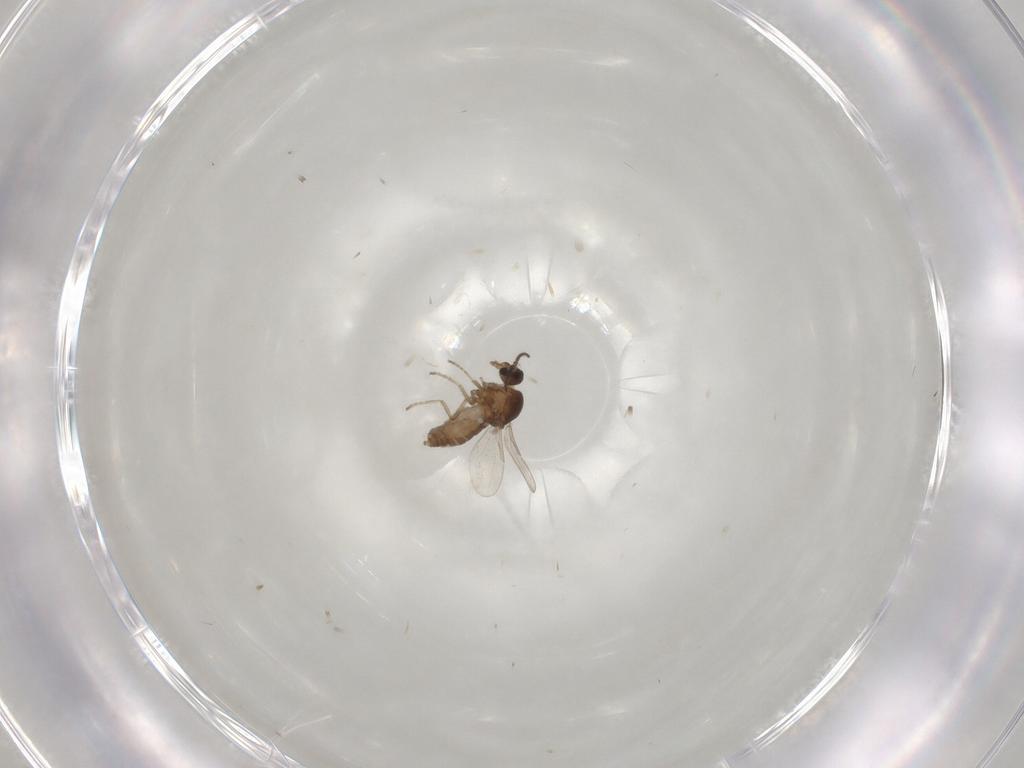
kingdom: Animalia
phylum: Arthropoda
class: Insecta
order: Diptera
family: Ceratopogonidae
